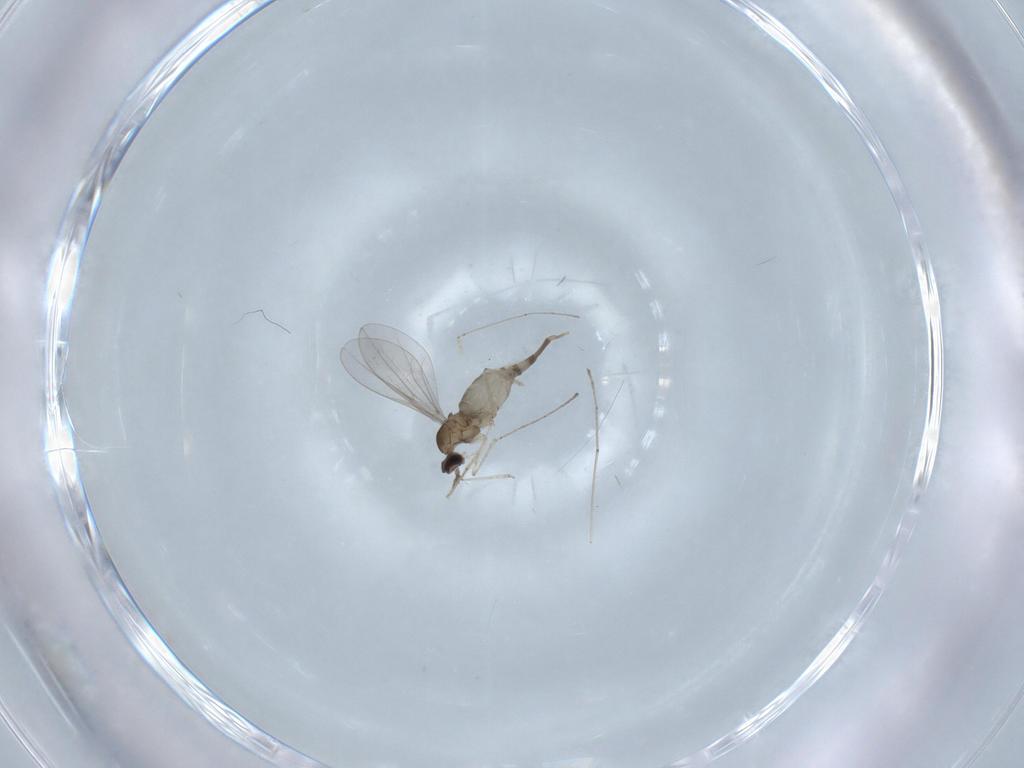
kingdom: Animalia
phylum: Arthropoda
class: Insecta
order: Diptera
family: Cecidomyiidae
